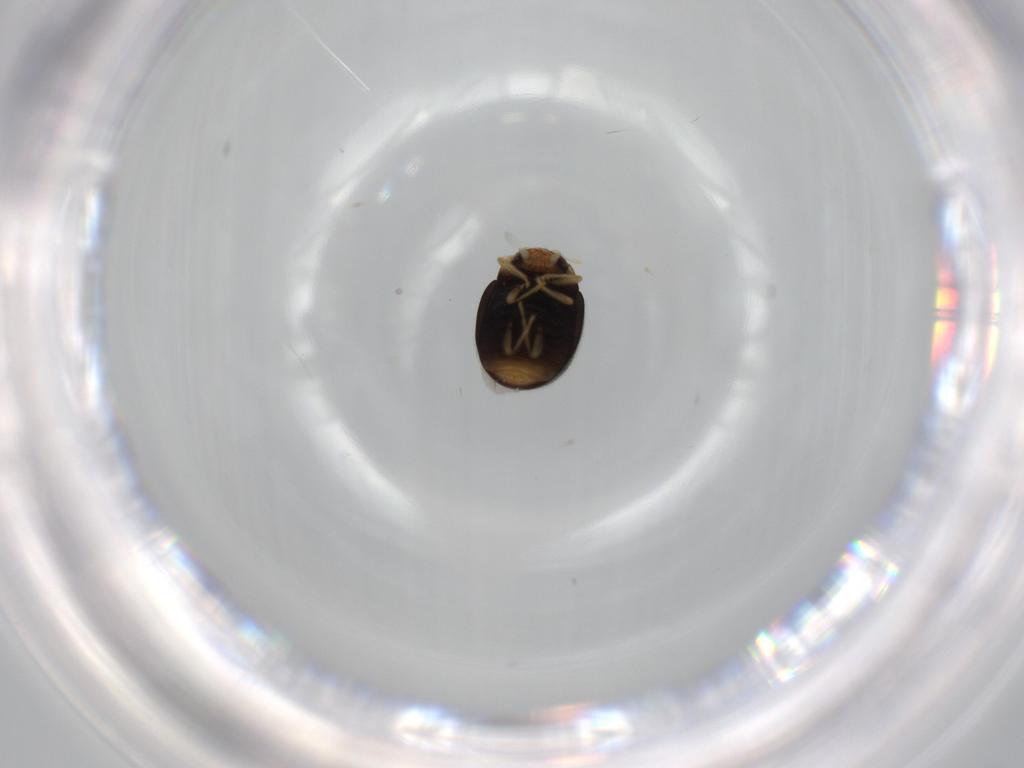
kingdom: Animalia
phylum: Arthropoda
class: Insecta
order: Coleoptera
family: Coccinellidae
